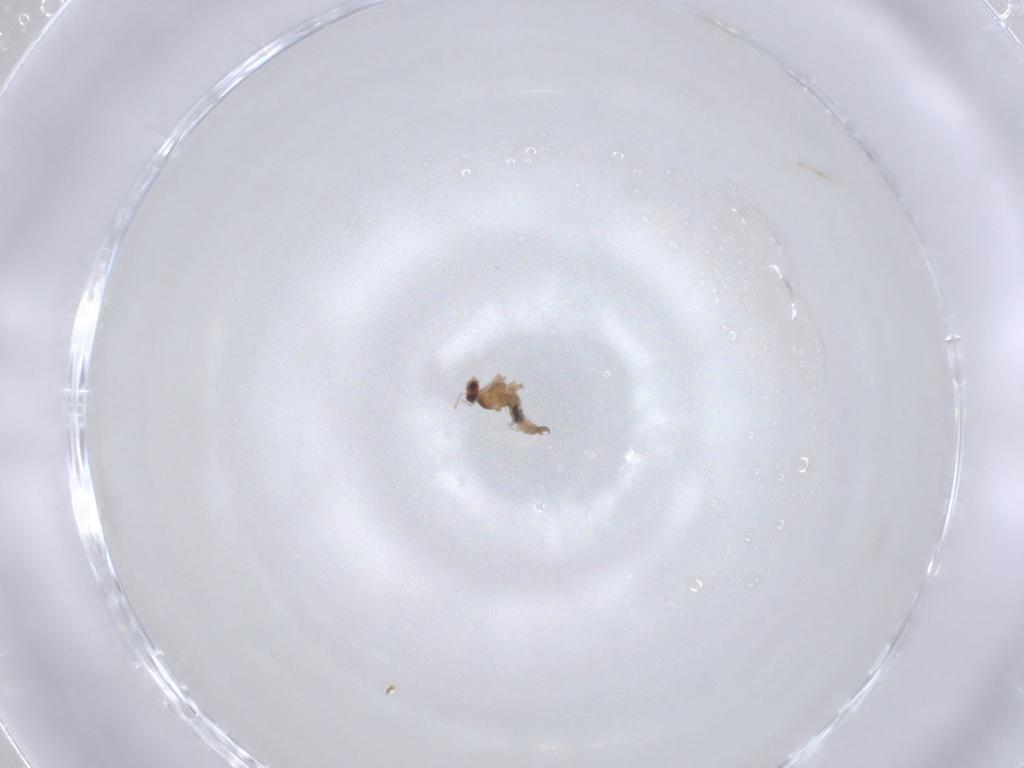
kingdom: Animalia
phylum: Arthropoda
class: Insecta
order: Diptera
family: Cecidomyiidae
